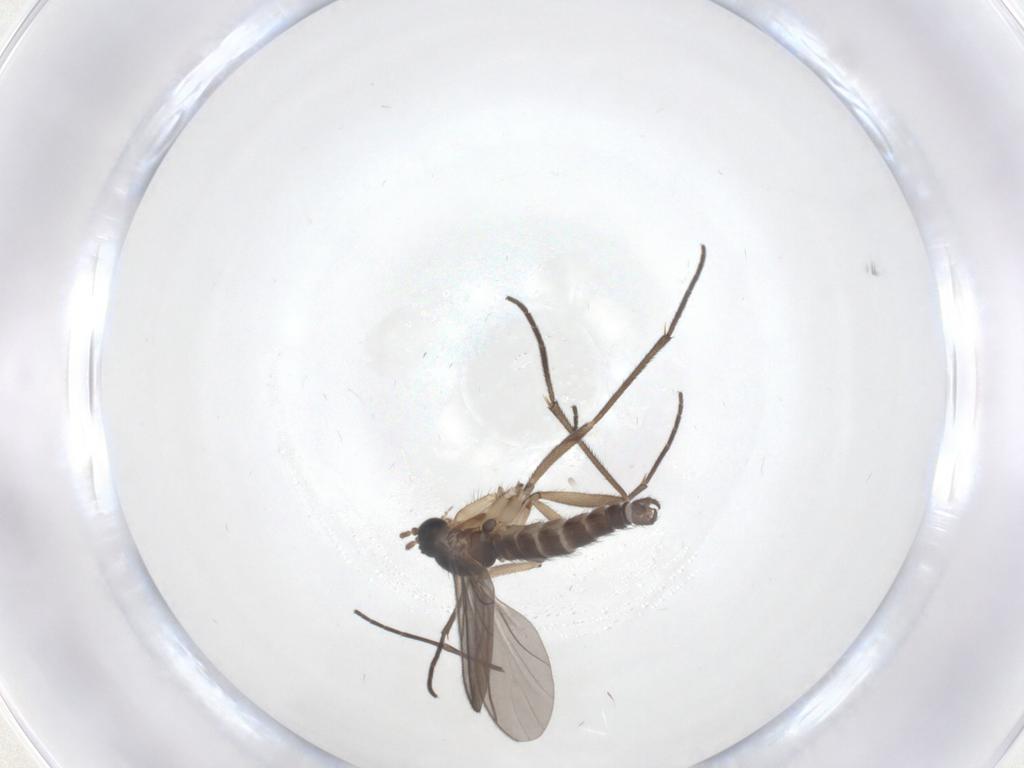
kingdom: Animalia
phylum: Arthropoda
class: Insecta
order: Diptera
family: Sciaridae
